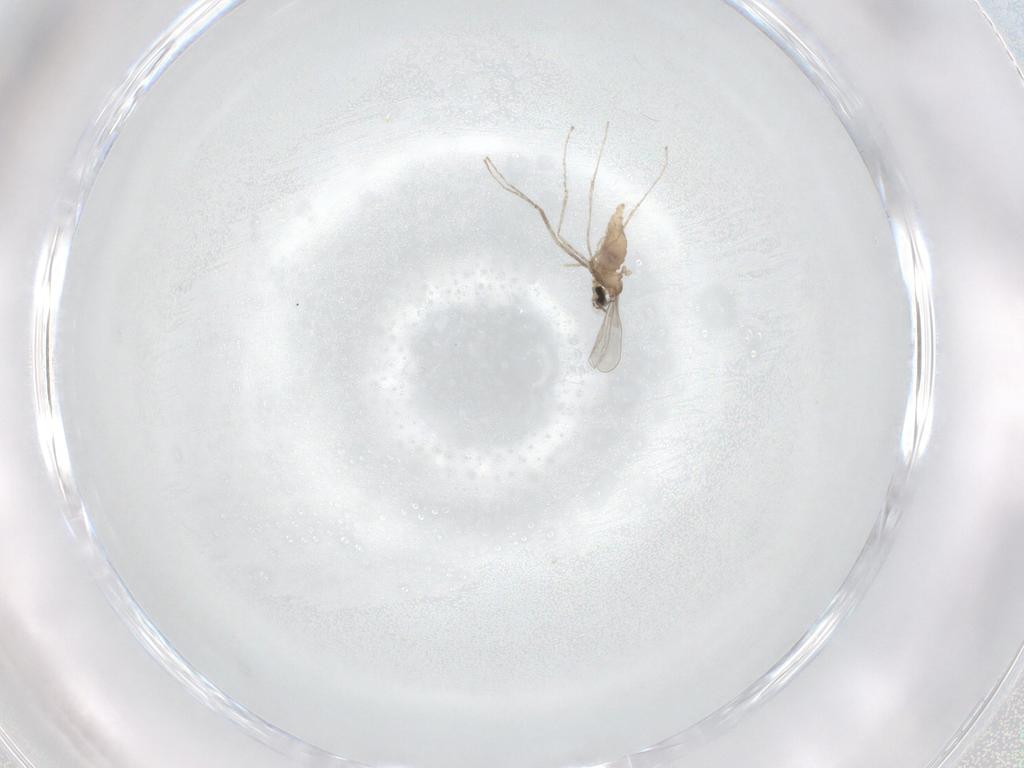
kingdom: Animalia
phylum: Arthropoda
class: Insecta
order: Diptera
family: Cecidomyiidae
